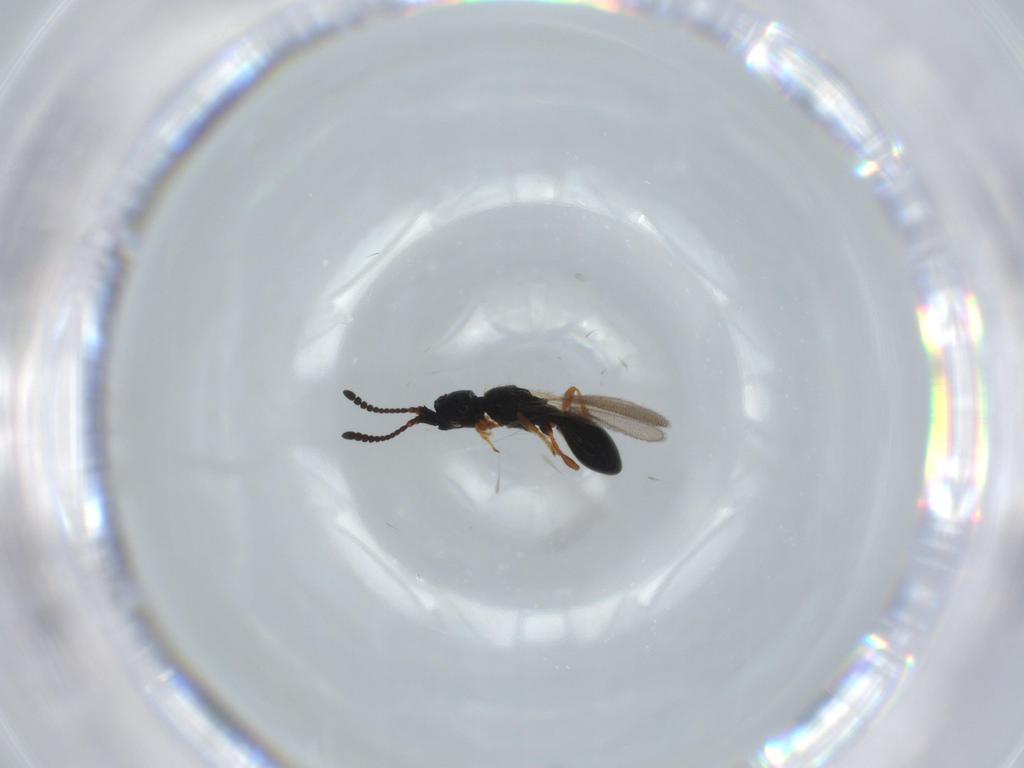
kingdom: Animalia
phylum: Arthropoda
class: Insecta
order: Hymenoptera
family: Diapriidae
